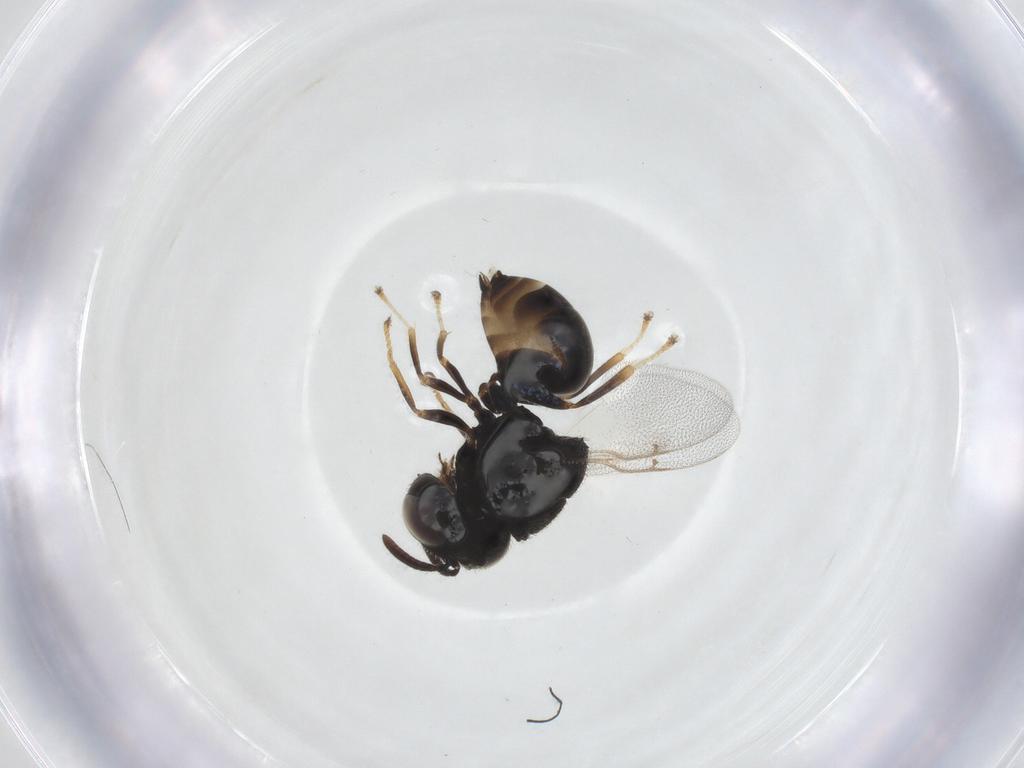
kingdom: Animalia
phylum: Arthropoda
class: Insecta
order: Hymenoptera
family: Perilampidae
